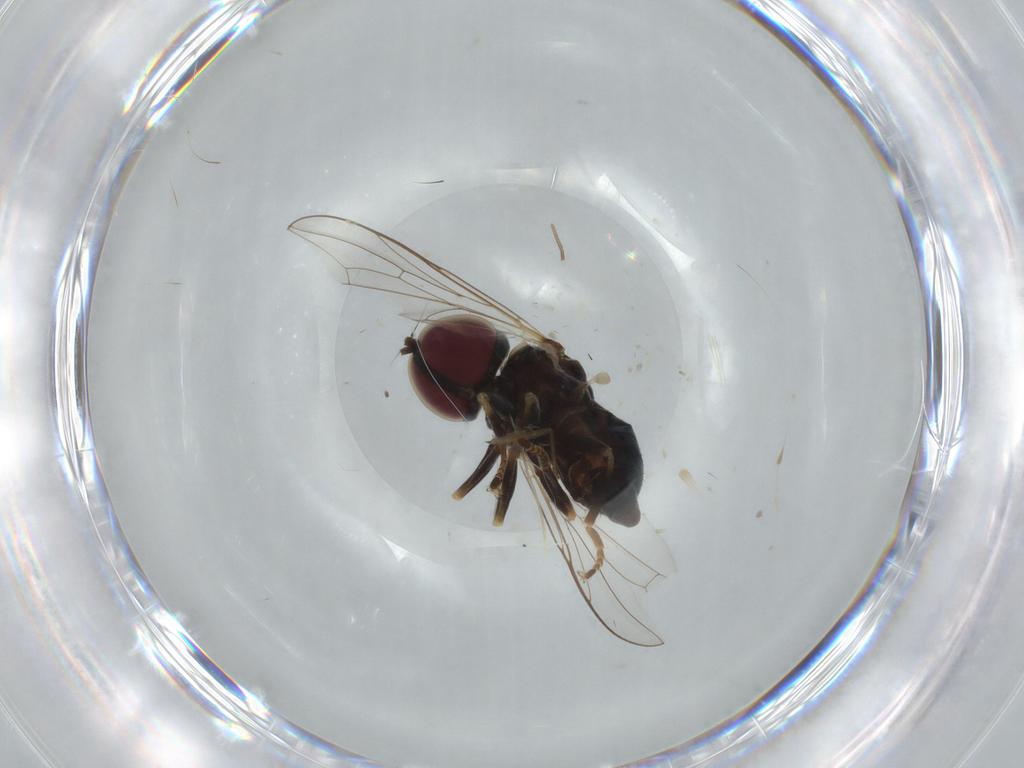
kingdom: Animalia
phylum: Arthropoda
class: Insecta
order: Diptera
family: Pipunculidae
